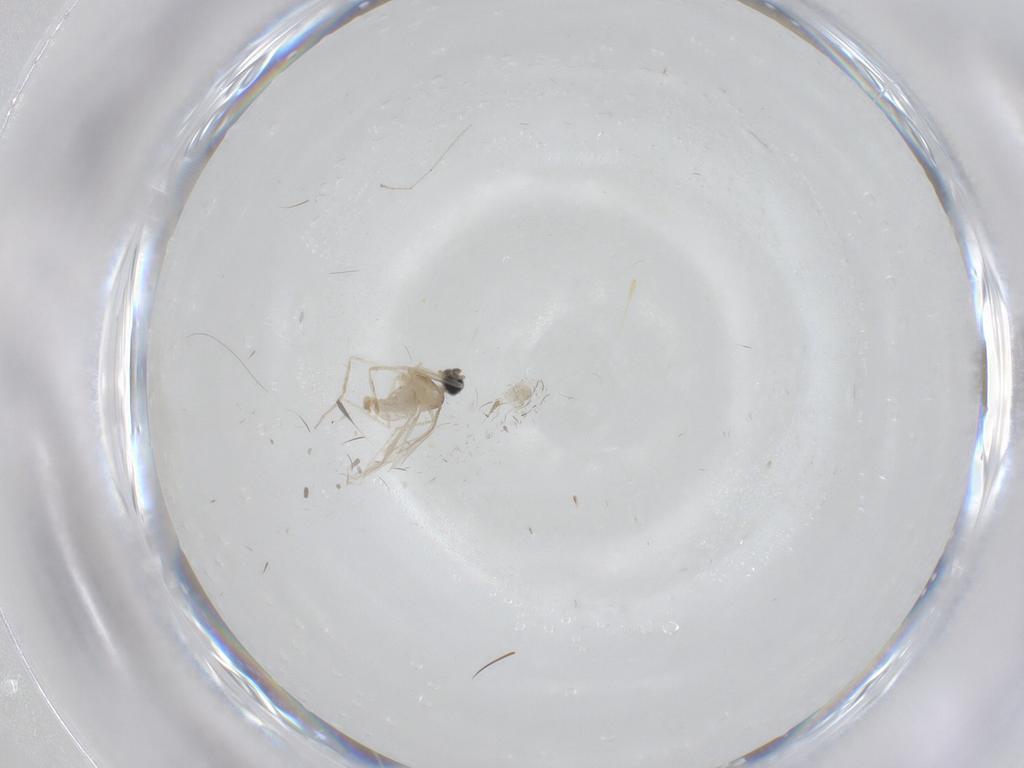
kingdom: Animalia
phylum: Arthropoda
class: Insecta
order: Diptera
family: Cecidomyiidae
